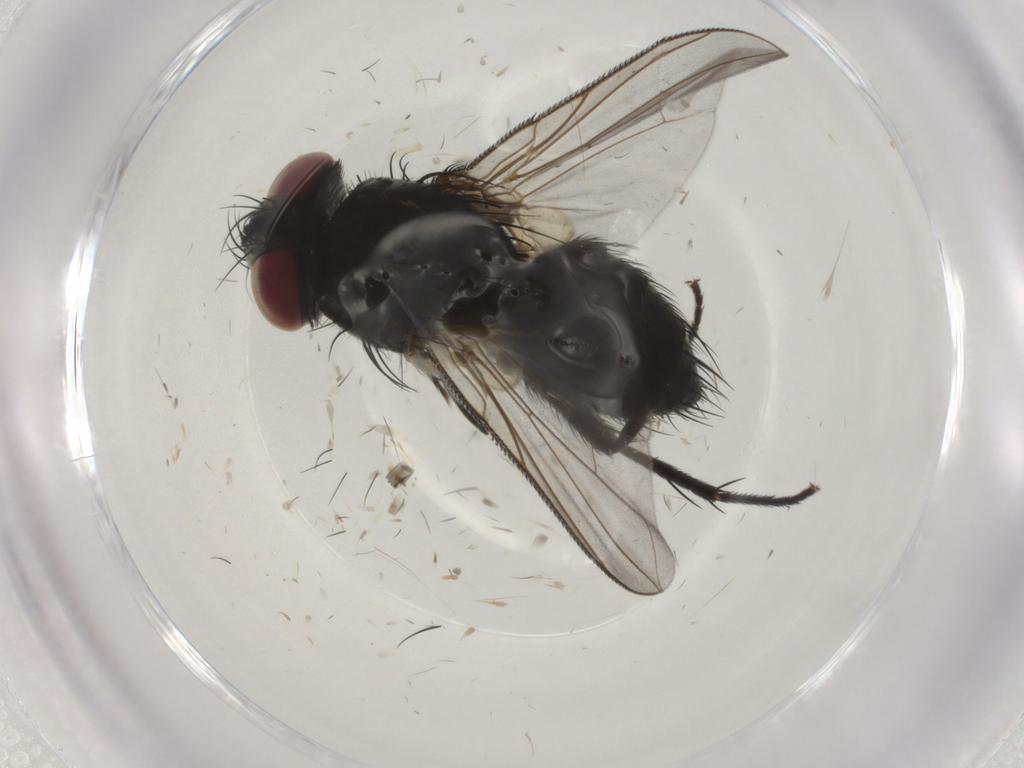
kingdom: Animalia
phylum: Arthropoda
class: Insecta
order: Diptera
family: Tachinidae
